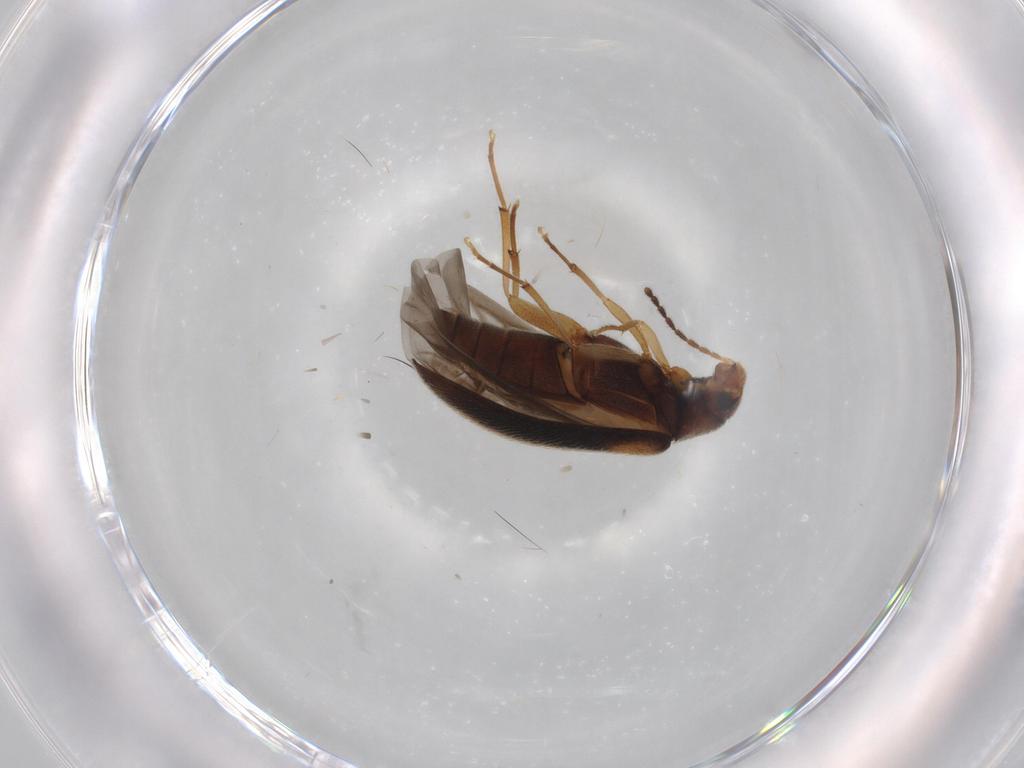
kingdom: Animalia
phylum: Arthropoda
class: Insecta
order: Coleoptera
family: Melandryidae
